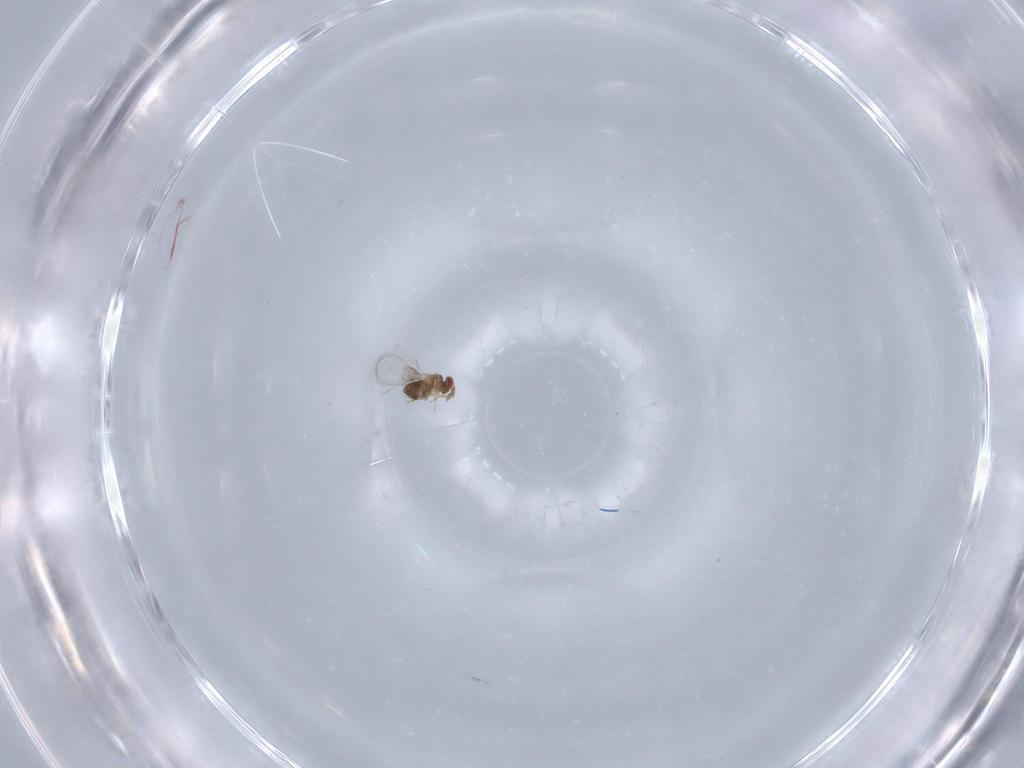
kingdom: Animalia
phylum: Arthropoda
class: Insecta
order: Hymenoptera
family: Trichogrammatidae
